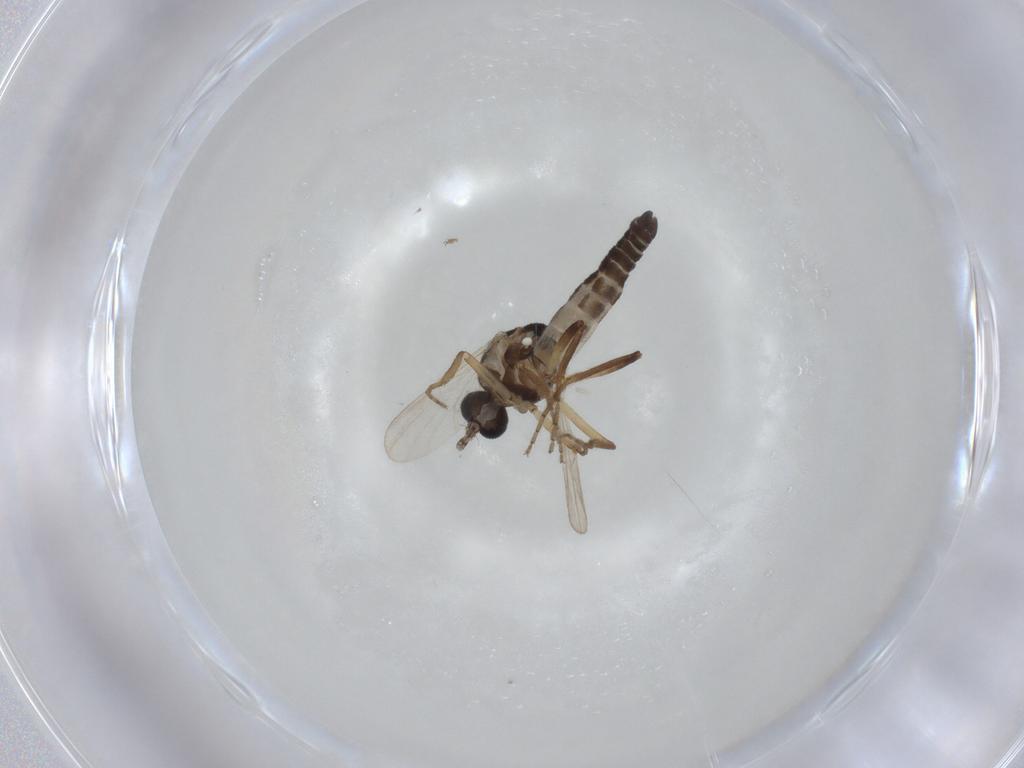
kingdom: Animalia
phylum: Arthropoda
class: Insecta
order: Diptera
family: Ceratopogonidae
